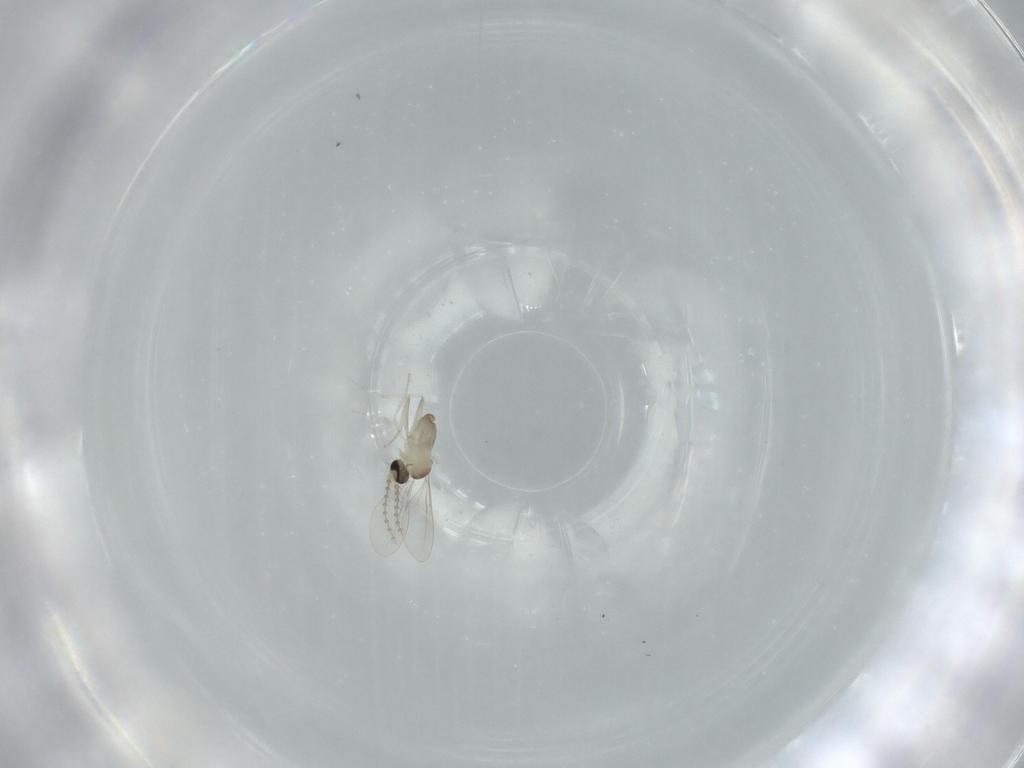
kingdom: Animalia
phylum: Arthropoda
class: Insecta
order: Diptera
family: Cecidomyiidae
